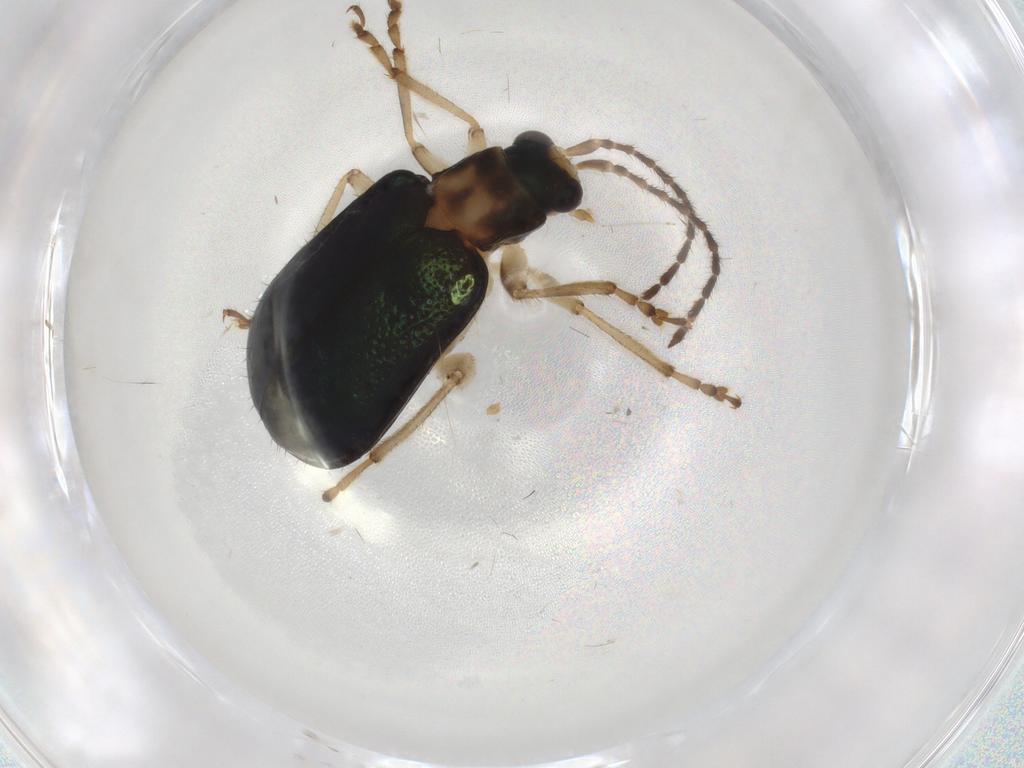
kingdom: Animalia
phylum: Arthropoda
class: Insecta
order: Coleoptera
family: Chrysomelidae
